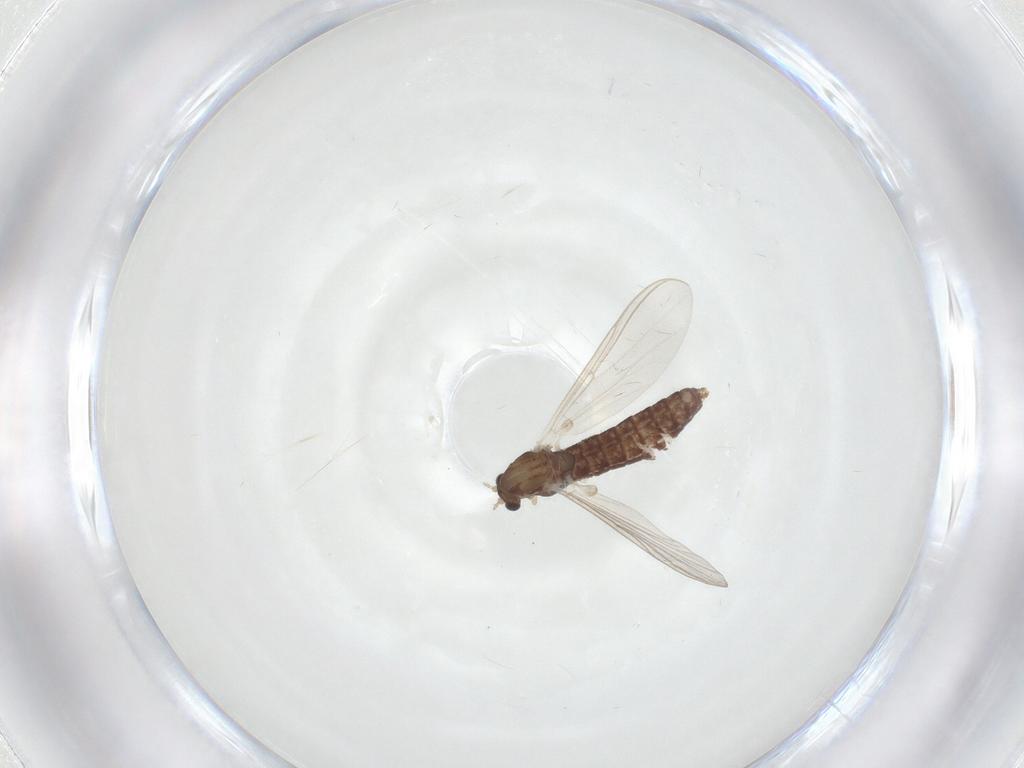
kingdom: Animalia
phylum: Arthropoda
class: Insecta
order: Diptera
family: Chironomidae
